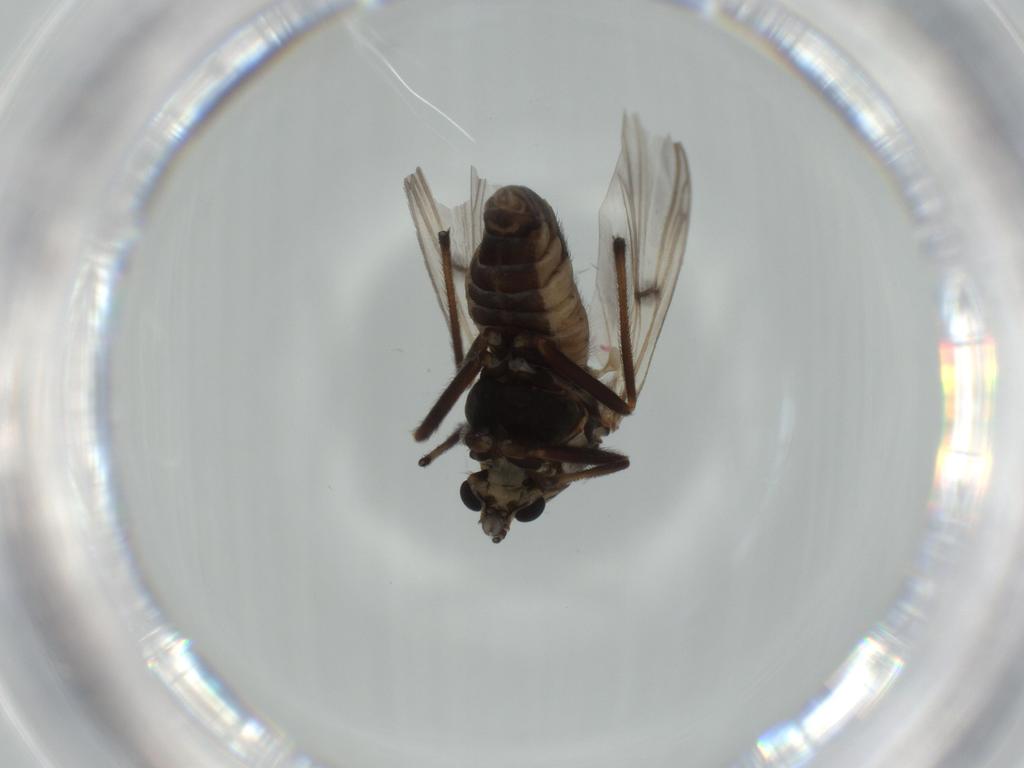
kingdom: Animalia
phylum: Arthropoda
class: Insecta
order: Diptera
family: Chironomidae
